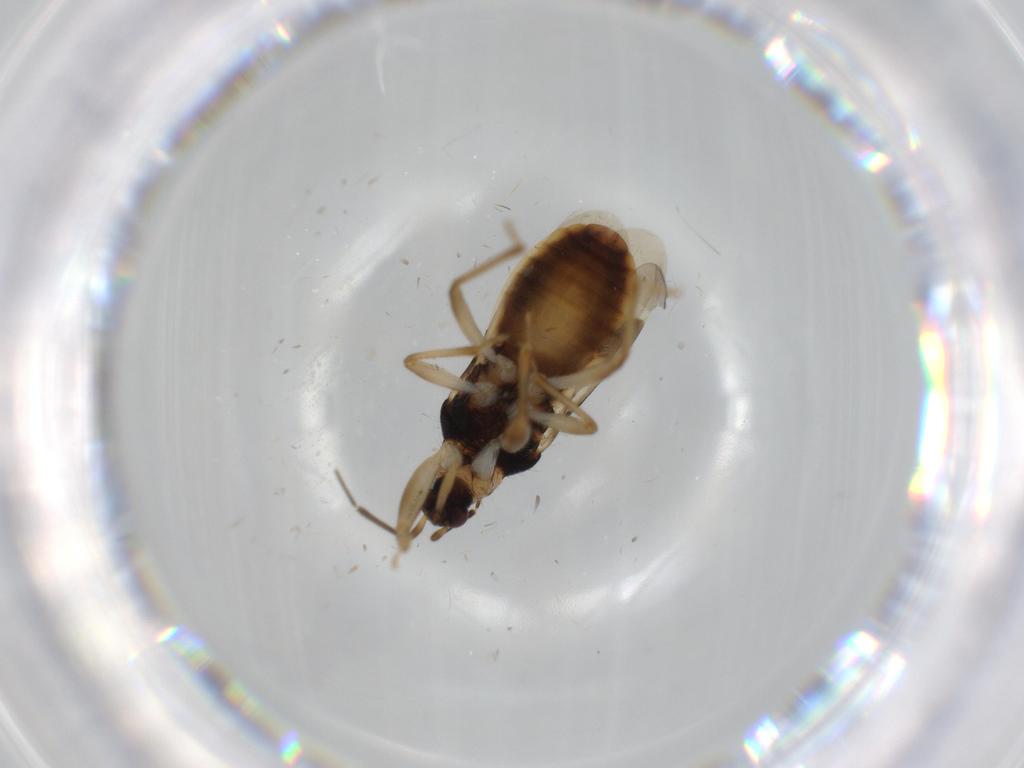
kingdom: Animalia
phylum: Arthropoda
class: Insecta
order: Hemiptera
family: Nabidae
